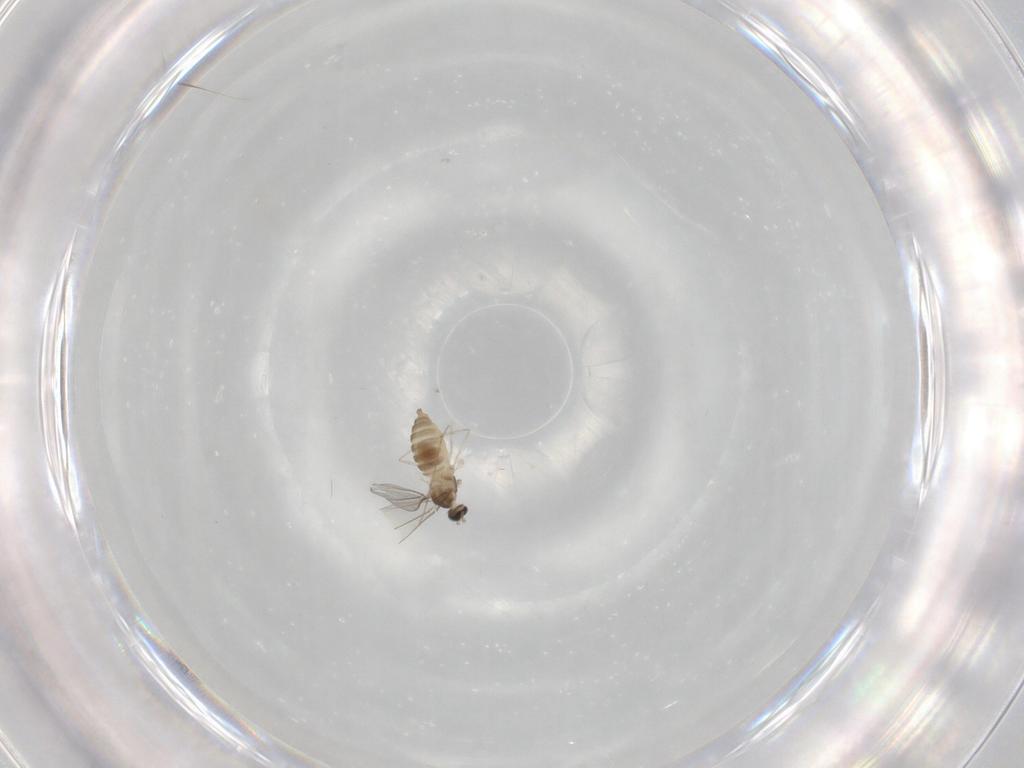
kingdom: Animalia
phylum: Arthropoda
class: Insecta
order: Diptera
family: Cecidomyiidae
